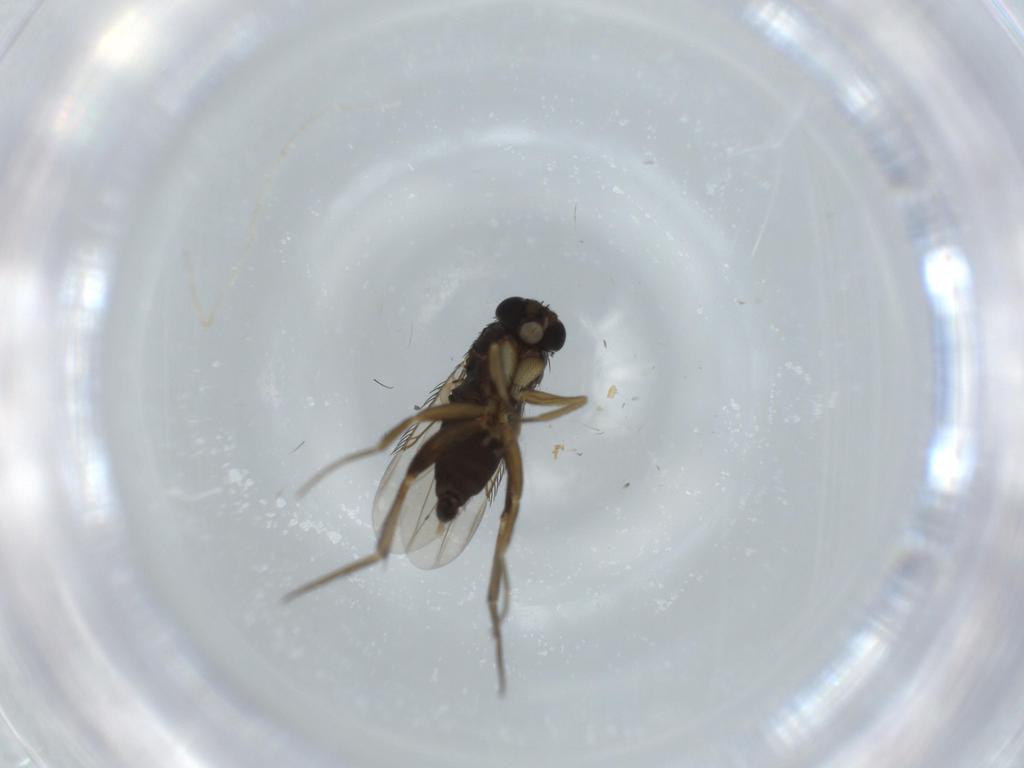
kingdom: Animalia
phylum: Arthropoda
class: Insecta
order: Diptera
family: Phoridae
